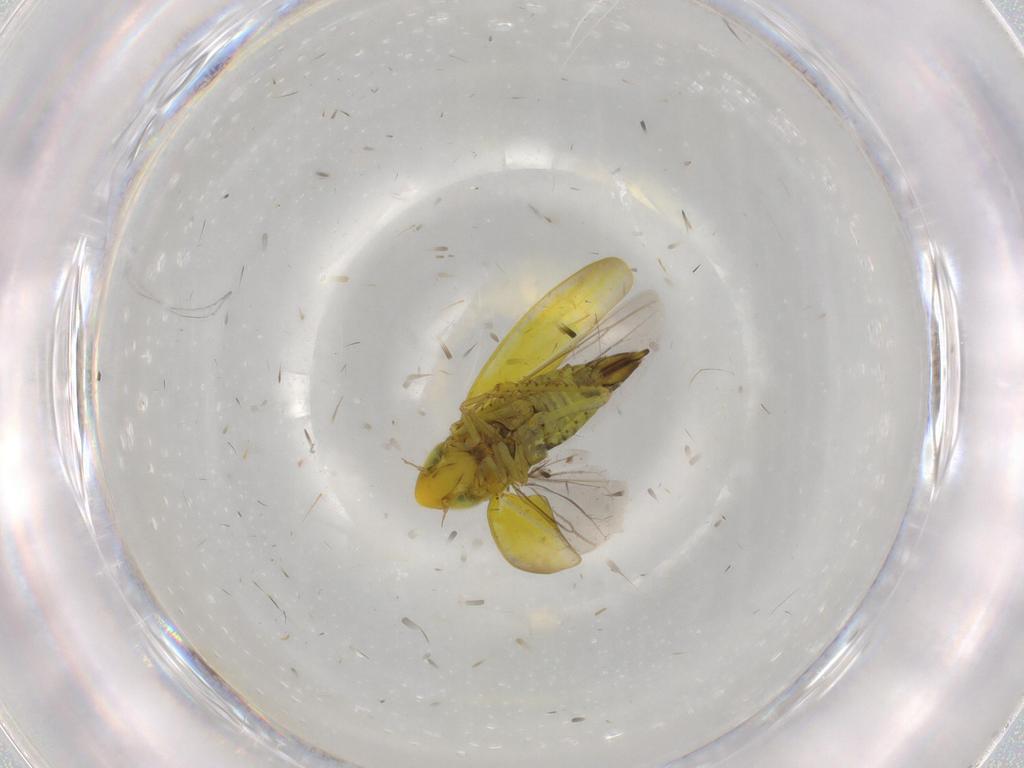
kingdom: Animalia
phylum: Arthropoda
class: Insecta
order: Hemiptera
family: Cicadellidae
